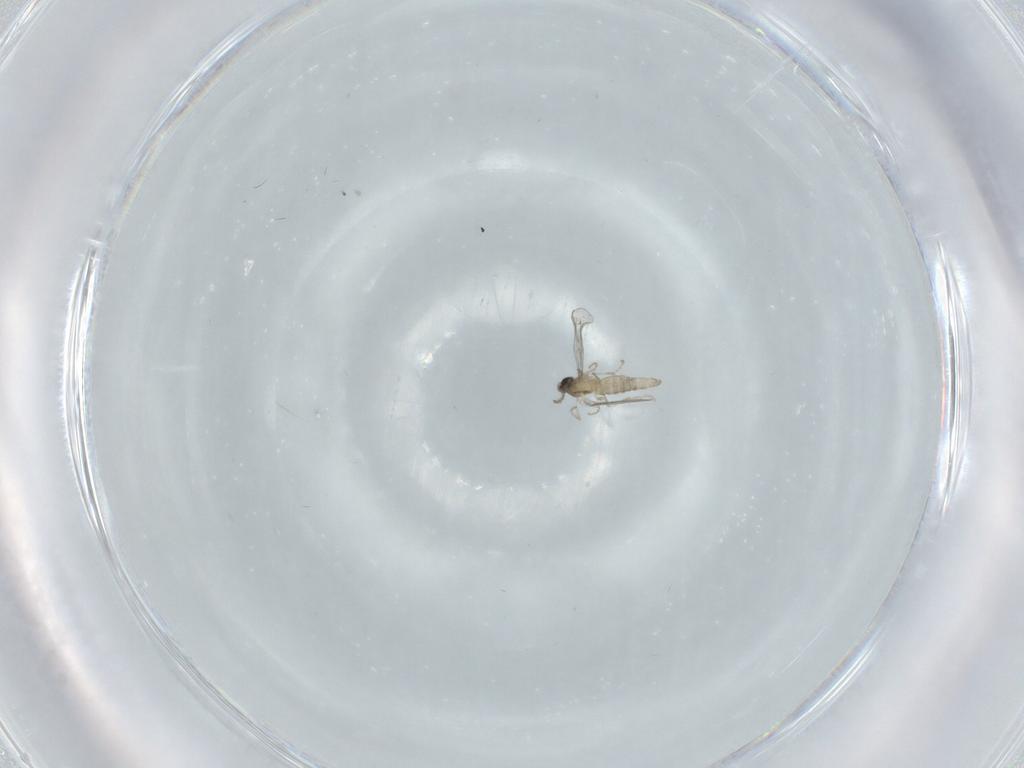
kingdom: Animalia
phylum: Arthropoda
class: Insecta
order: Diptera
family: Cecidomyiidae
